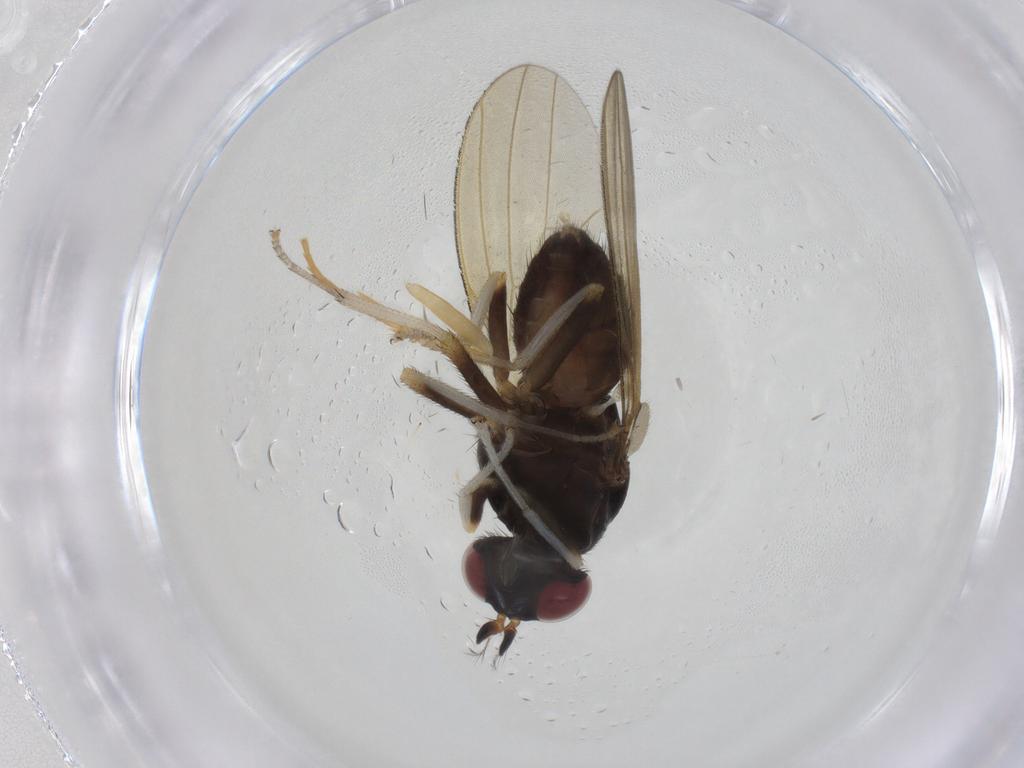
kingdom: Animalia
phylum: Arthropoda
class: Insecta
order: Diptera
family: Sciaridae
